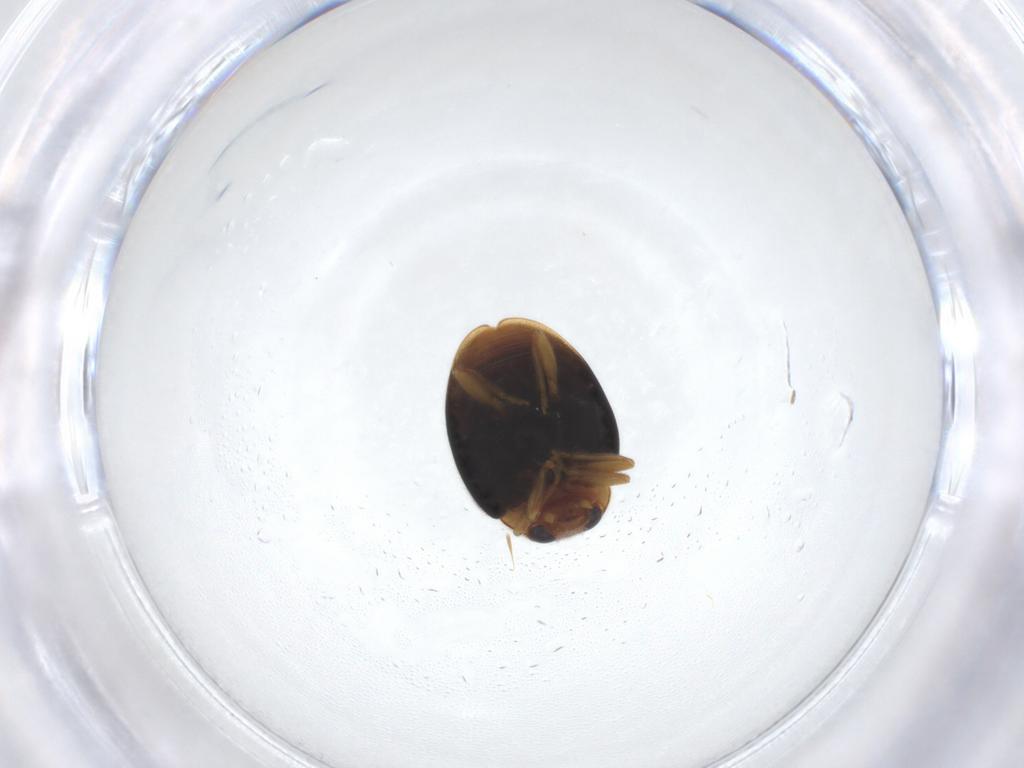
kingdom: Animalia
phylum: Arthropoda
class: Insecta
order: Coleoptera
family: Coccinellidae
